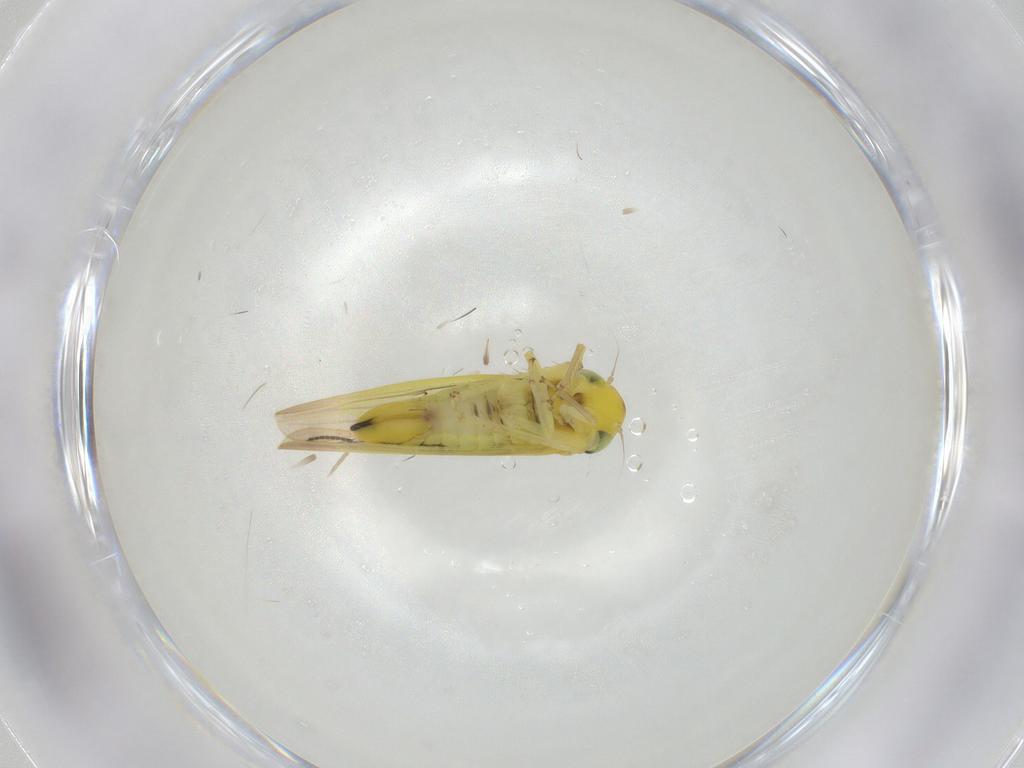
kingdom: Animalia
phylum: Arthropoda
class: Insecta
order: Hemiptera
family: Cicadellidae
